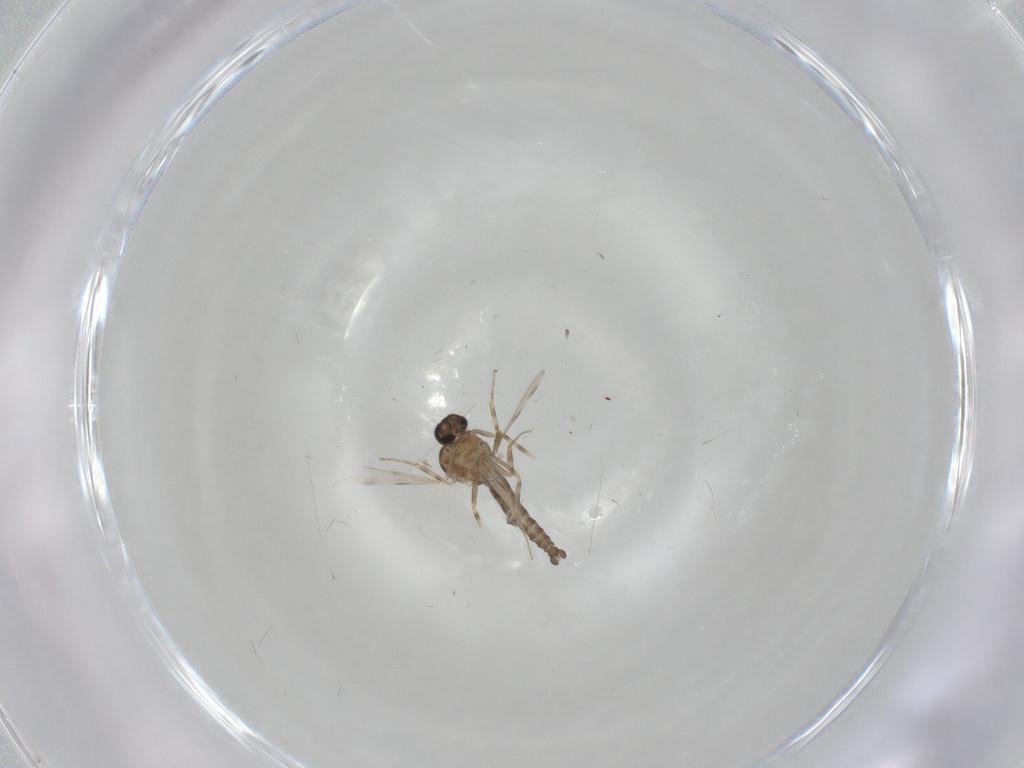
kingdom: Animalia
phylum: Arthropoda
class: Insecta
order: Diptera
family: Ceratopogonidae
